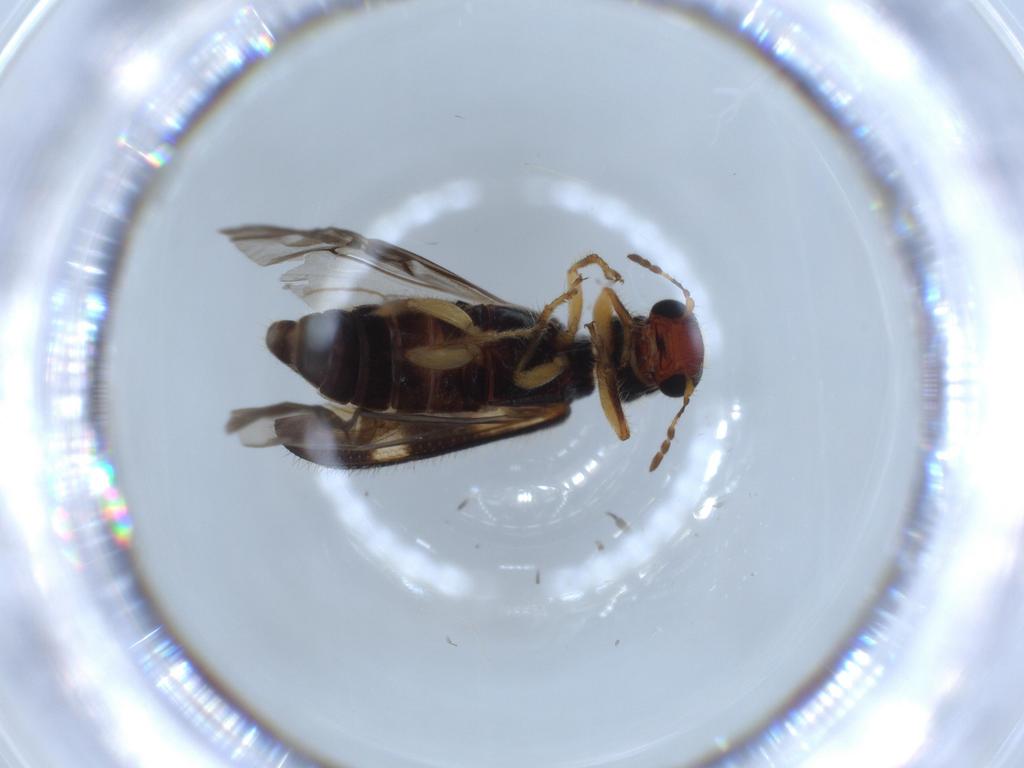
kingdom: Animalia
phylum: Arthropoda
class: Insecta
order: Coleoptera
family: Cleridae
